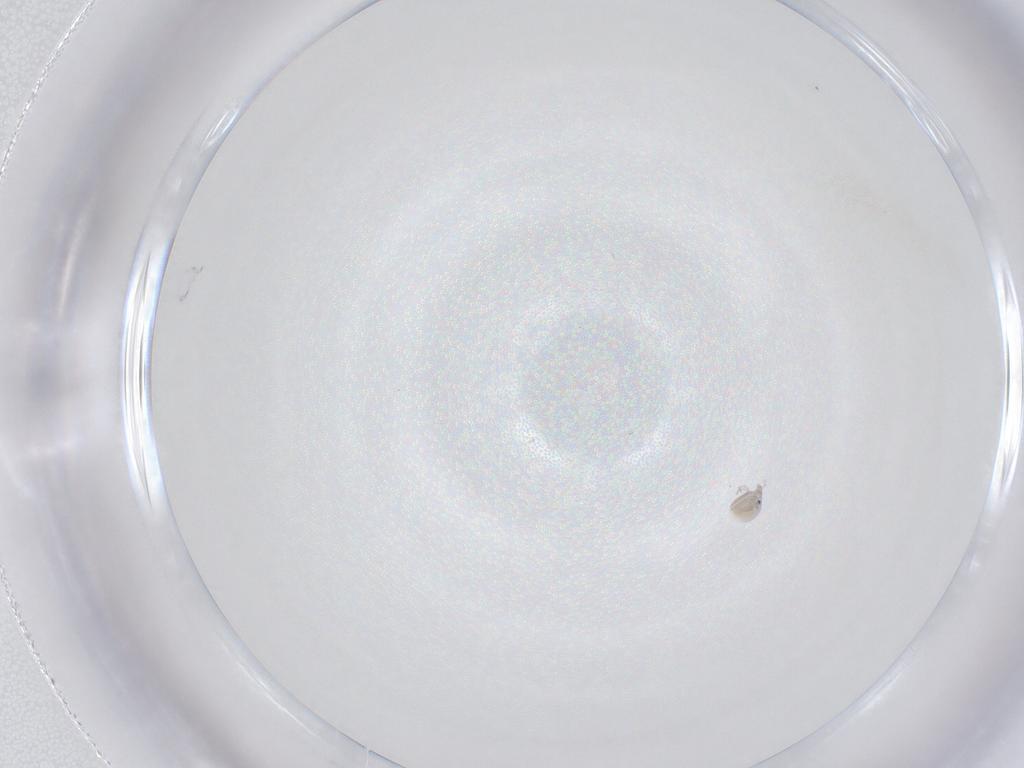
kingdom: Animalia
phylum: Arthropoda
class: Arachnida
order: Trombidiformes
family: Pionidae
